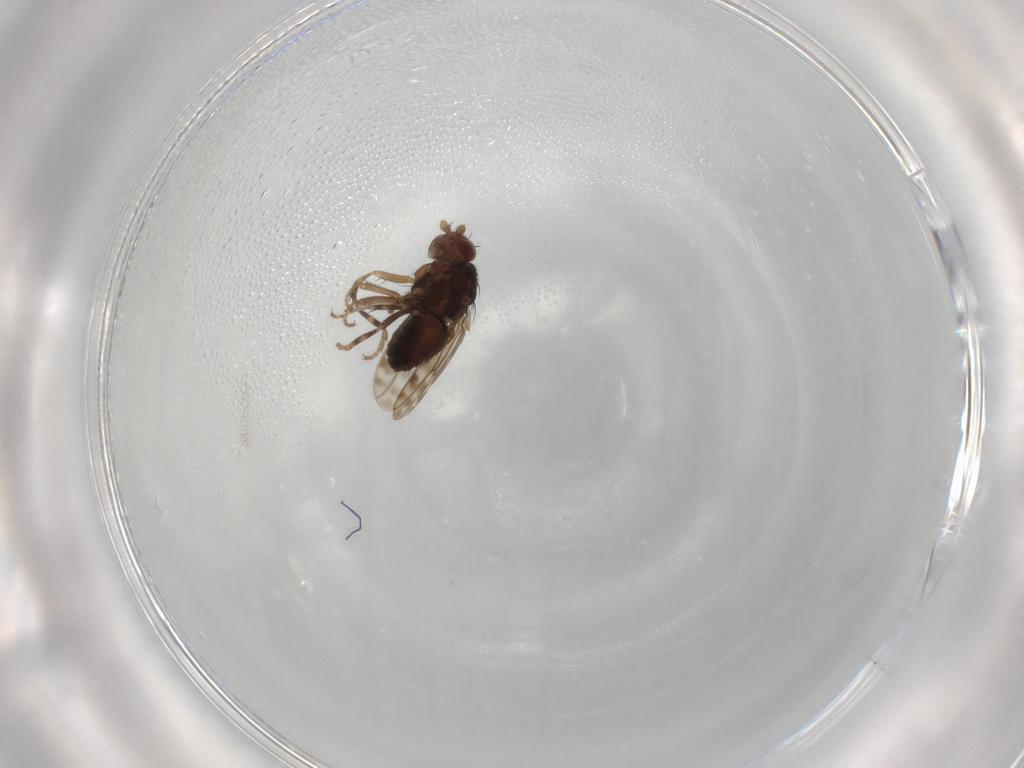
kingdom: Animalia
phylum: Arthropoda
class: Insecta
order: Diptera
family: Sphaeroceridae
